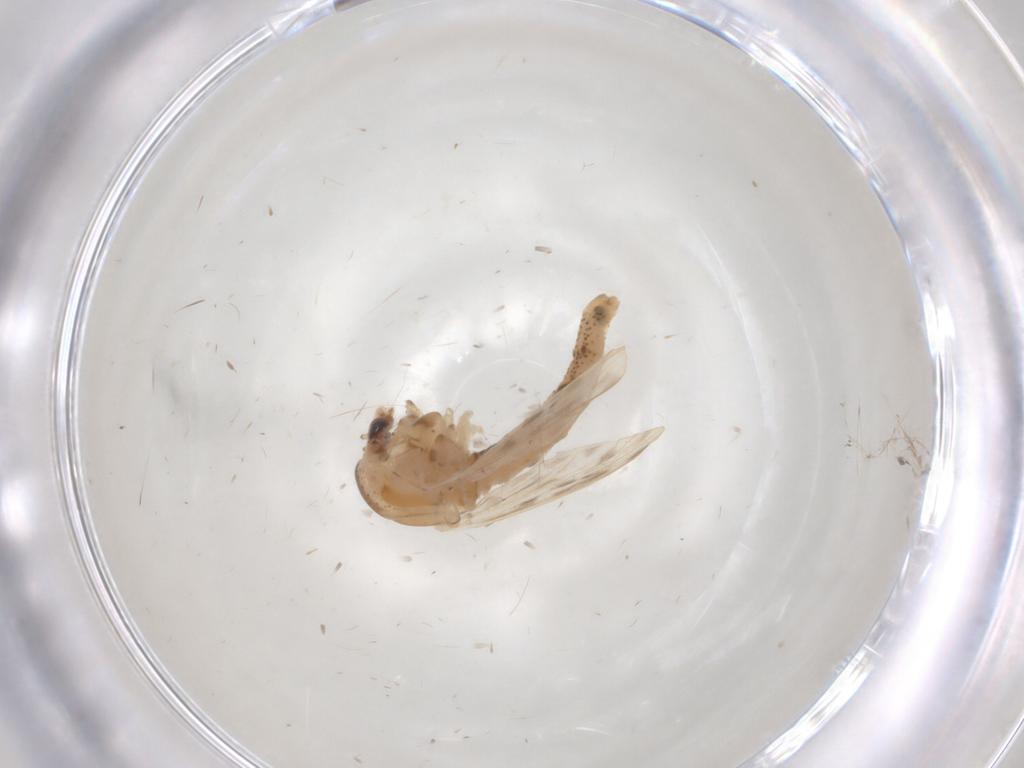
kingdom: Animalia
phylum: Arthropoda
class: Insecta
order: Diptera
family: Chaoboridae
